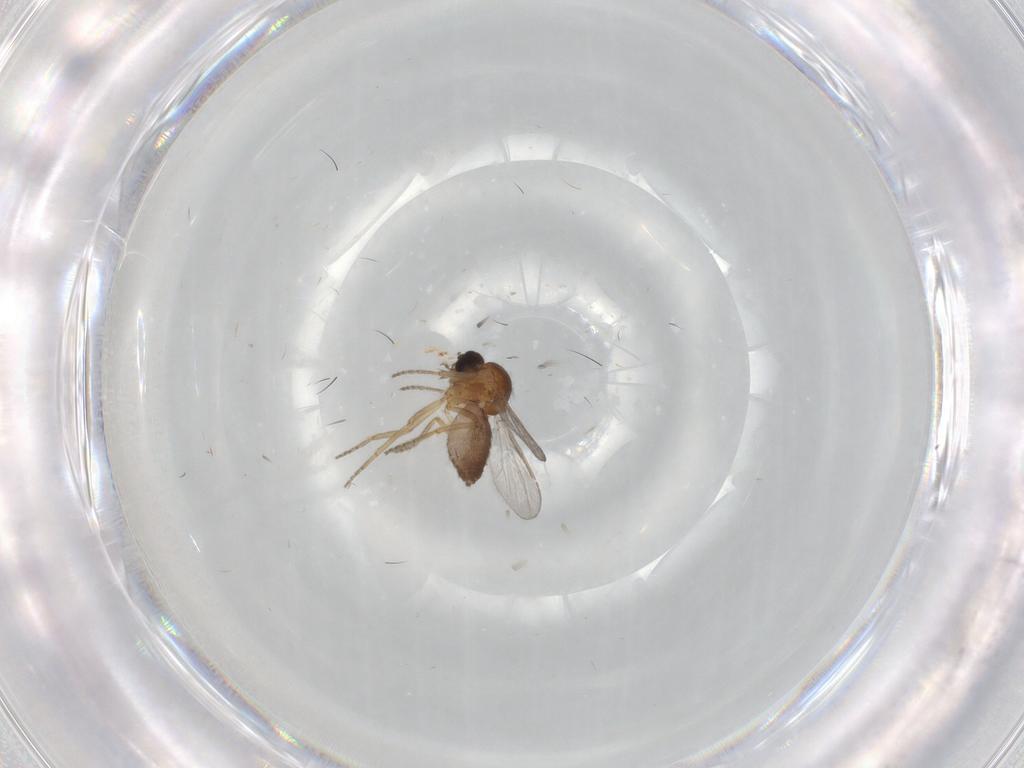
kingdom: Animalia
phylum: Arthropoda
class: Insecta
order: Diptera
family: Ceratopogonidae
